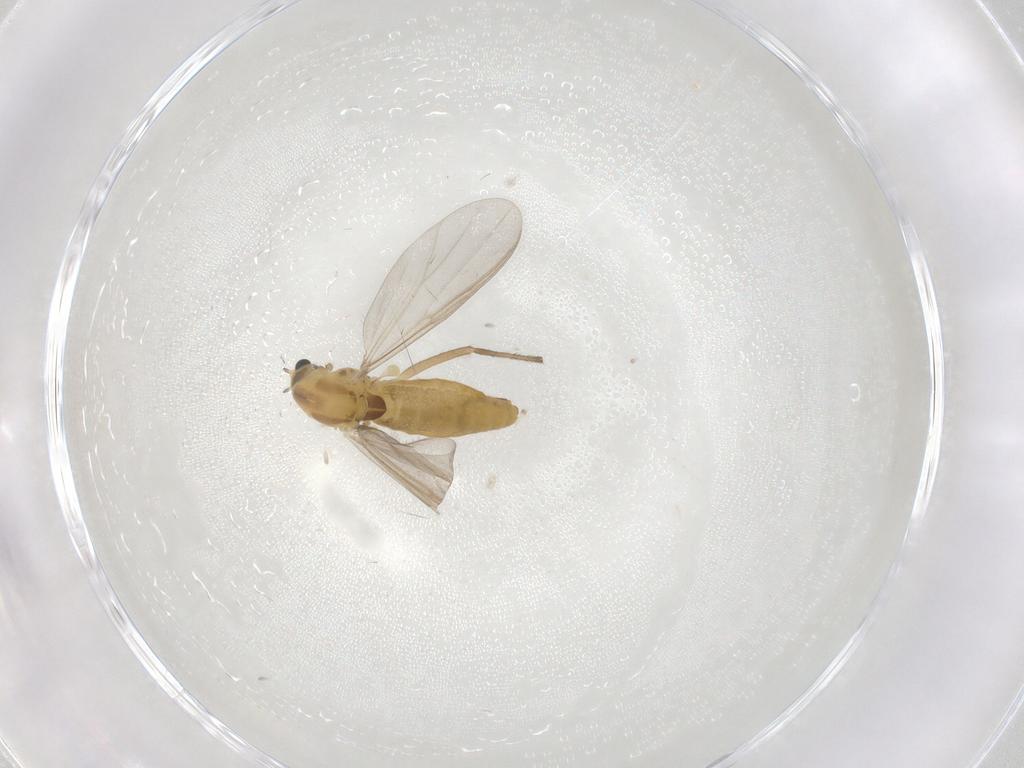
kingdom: Animalia
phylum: Arthropoda
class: Insecta
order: Diptera
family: Chironomidae
